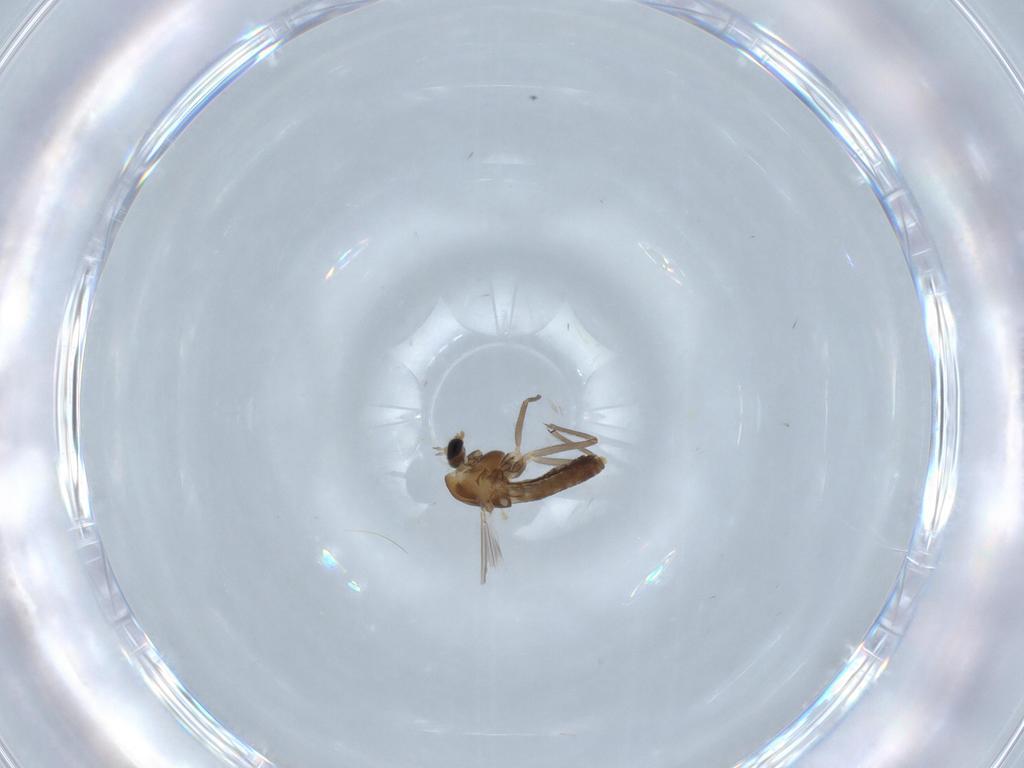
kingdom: Animalia
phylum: Arthropoda
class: Insecta
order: Diptera
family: Chironomidae
